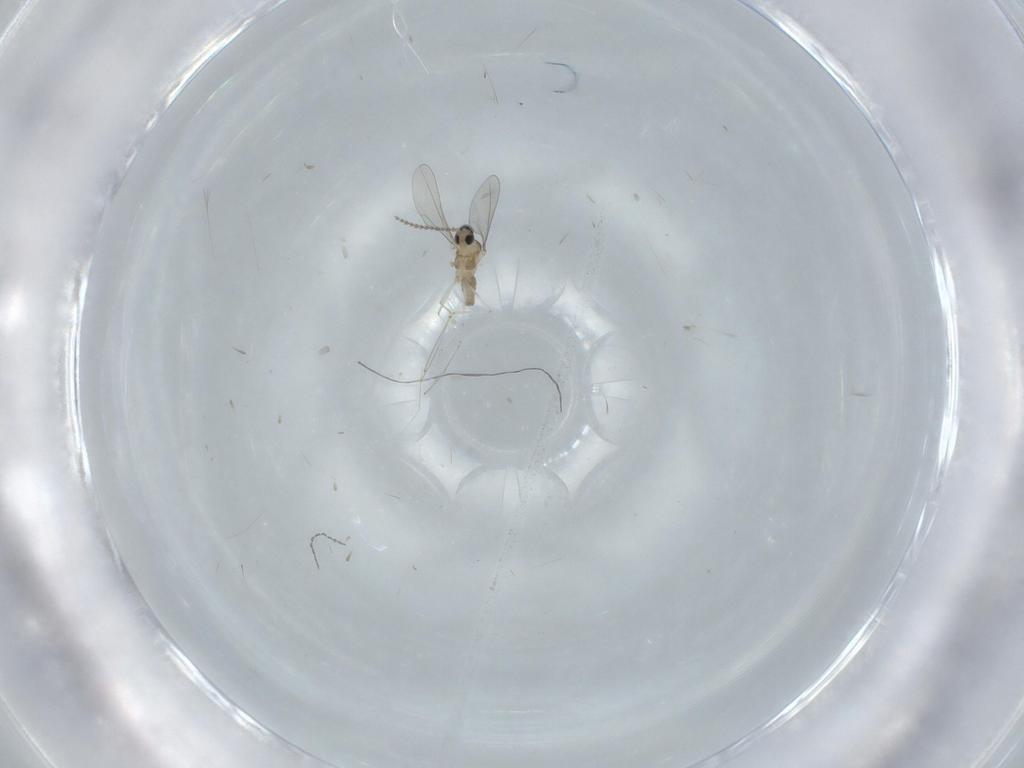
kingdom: Animalia
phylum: Arthropoda
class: Insecta
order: Diptera
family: Cecidomyiidae
